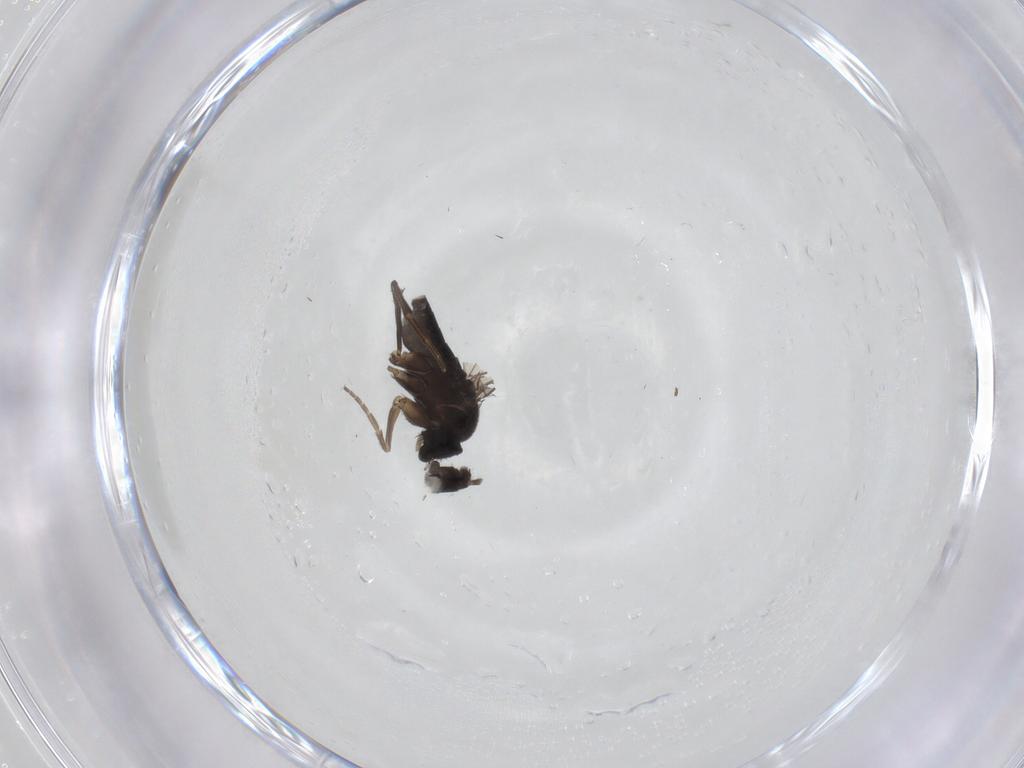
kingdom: Animalia
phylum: Arthropoda
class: Insecta
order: Diptera
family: Phoridae
